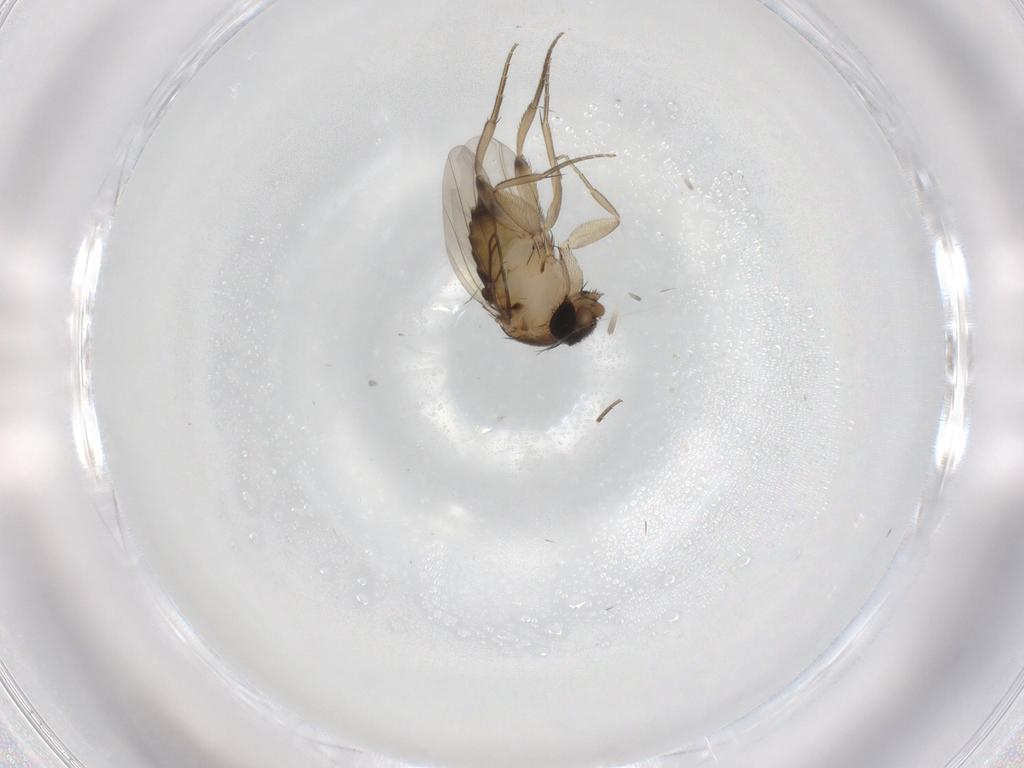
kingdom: Animalia
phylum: Arthropoda
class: Insecta
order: Diptera
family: Phoridae
